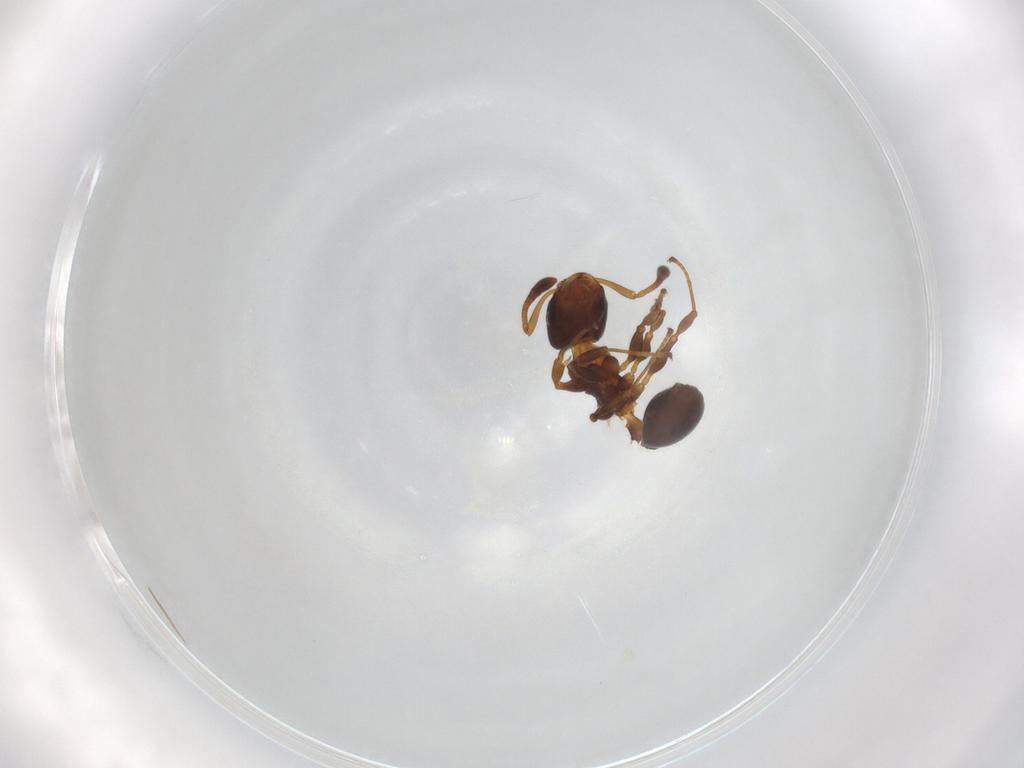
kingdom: Animalia
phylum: Arthropoda
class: Insecta
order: Hymenoptera
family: Formicidae
